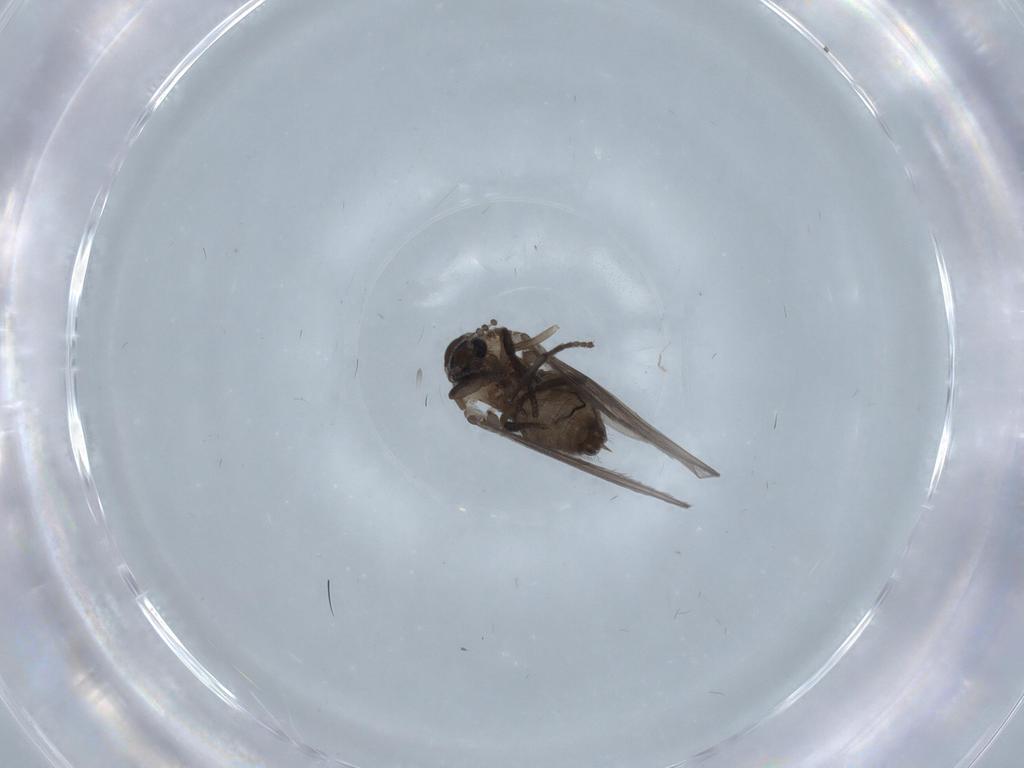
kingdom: Animalia
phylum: Arthropoda
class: Insecta
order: Diptera
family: Psychodidae
